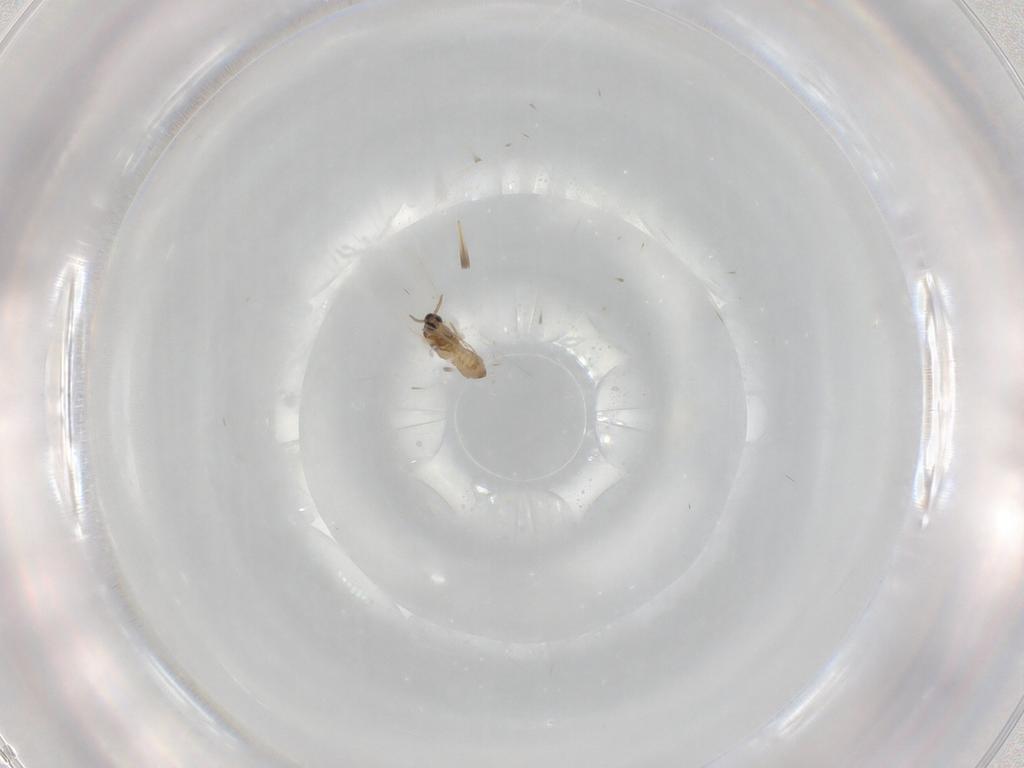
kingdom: Animalia
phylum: Arthropoda
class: Insecta
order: Diptera
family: Cecidomyiidae
